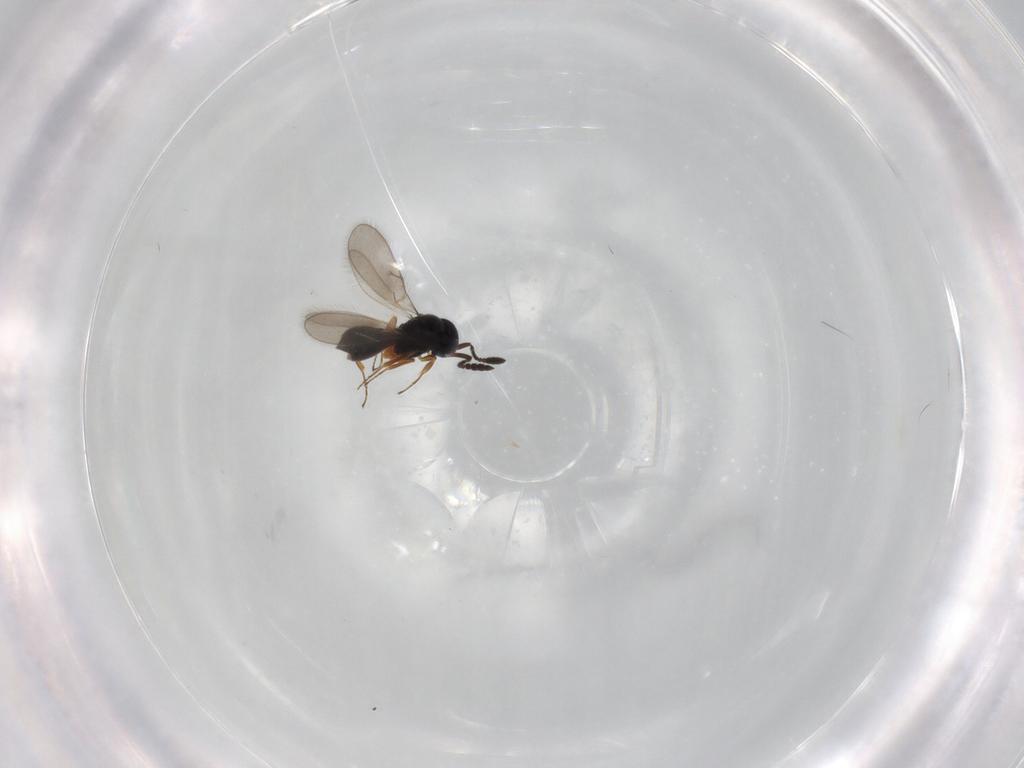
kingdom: Animalia
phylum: Arthropoda
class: Insecta
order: Hymenoptera
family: Scelionidae
